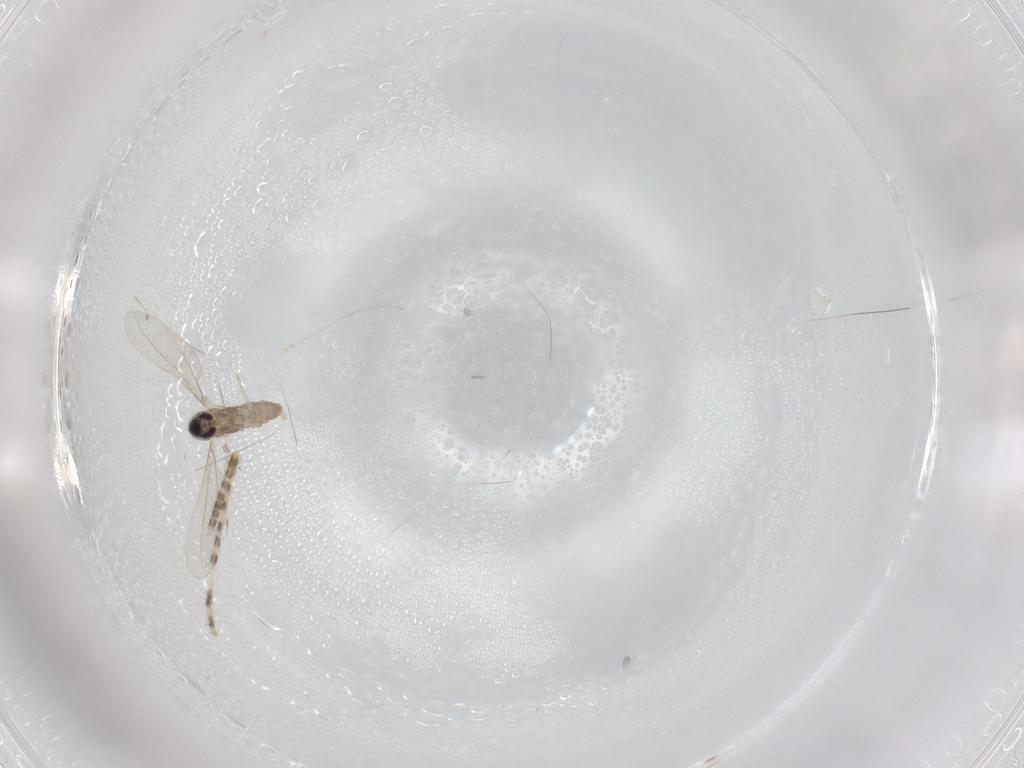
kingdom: Animalia
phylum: Arthropoda
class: Insecta
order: Diptera
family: Corethrellidae
